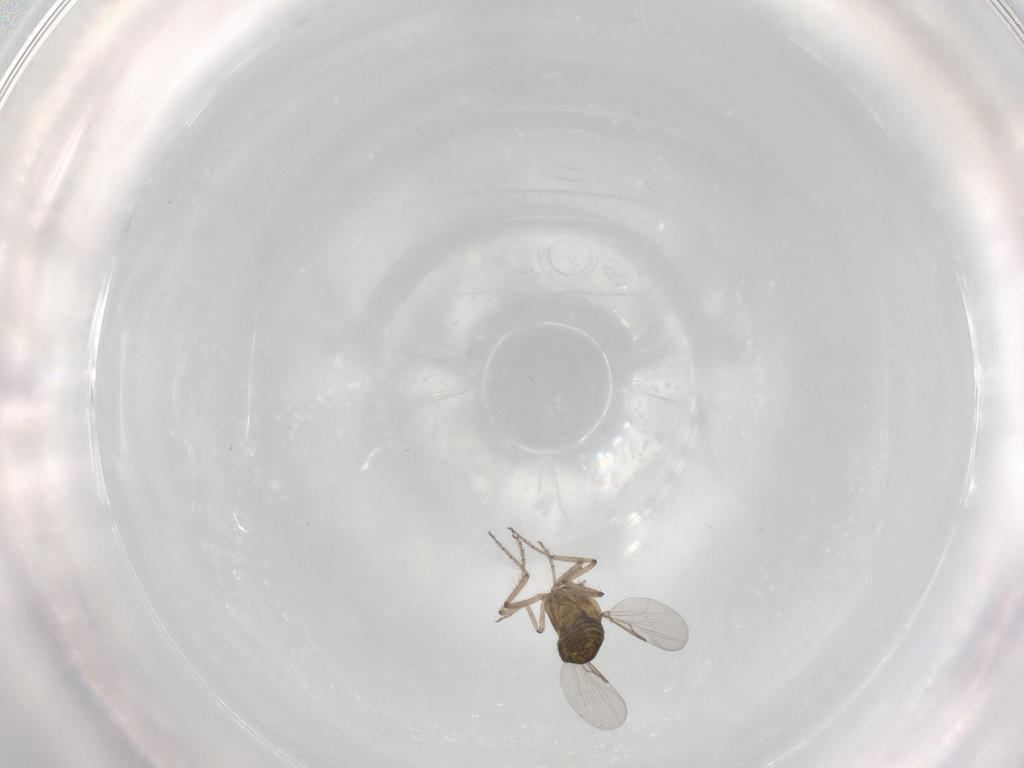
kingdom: Animalia
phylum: Arthropoda
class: Insecta
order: Diptera
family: Ceratopogonidae
